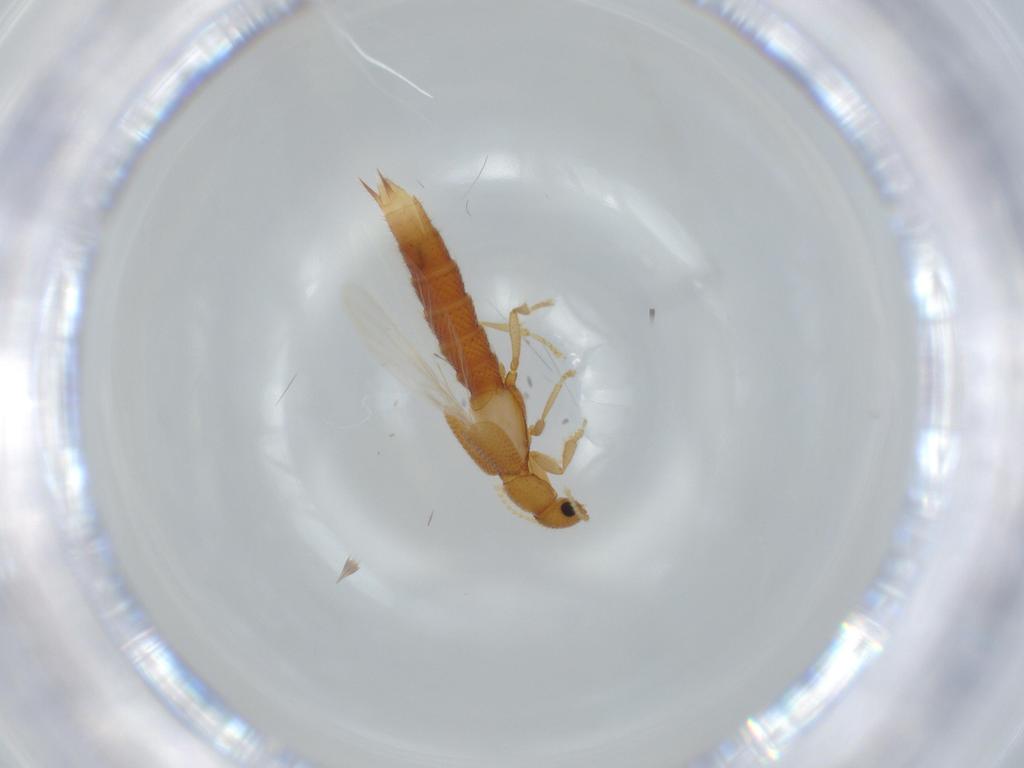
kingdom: Animalia
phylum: Arthropoda
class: Insecta
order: Coleoptera
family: Staphylinidae
